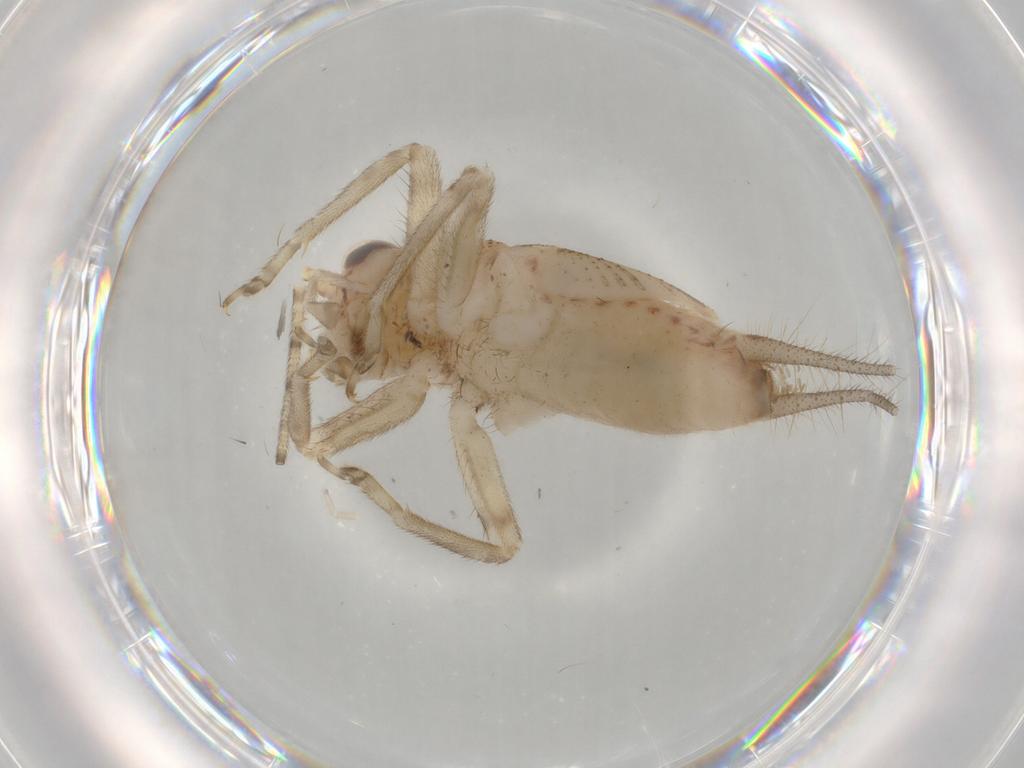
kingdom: Animalia
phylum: Arthropoda
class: Insecta
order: Orthoptera
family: Trigonidiidae
